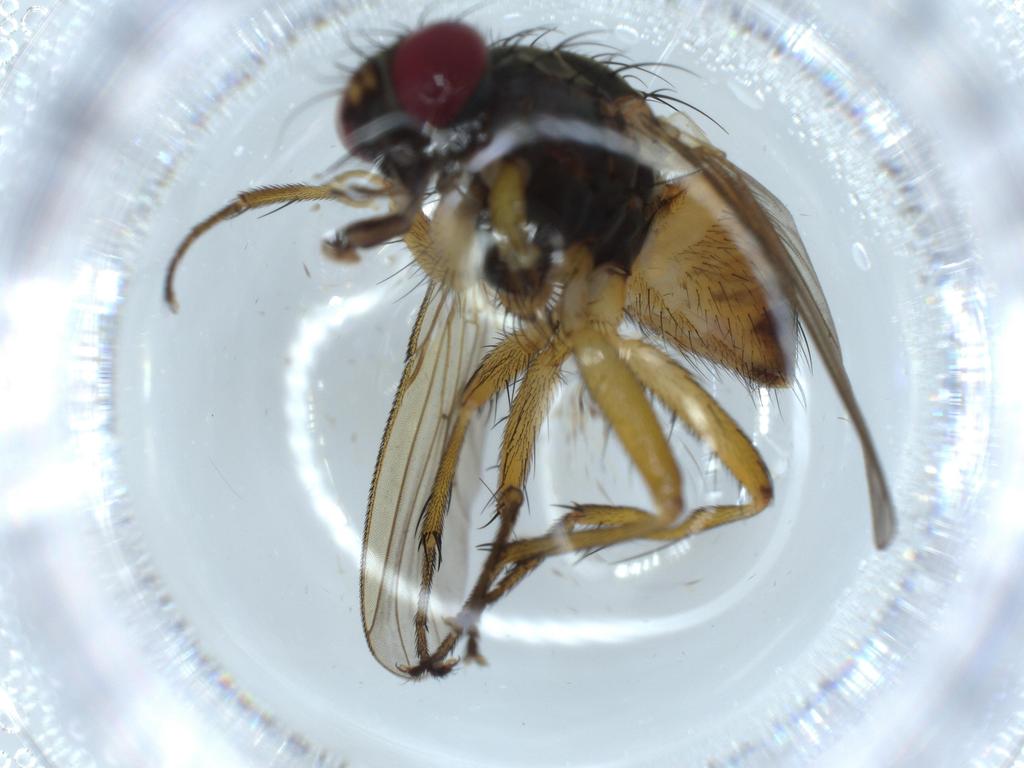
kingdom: Animalia
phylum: Arthropoda
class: Insecta
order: Diptera
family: Muscidae
